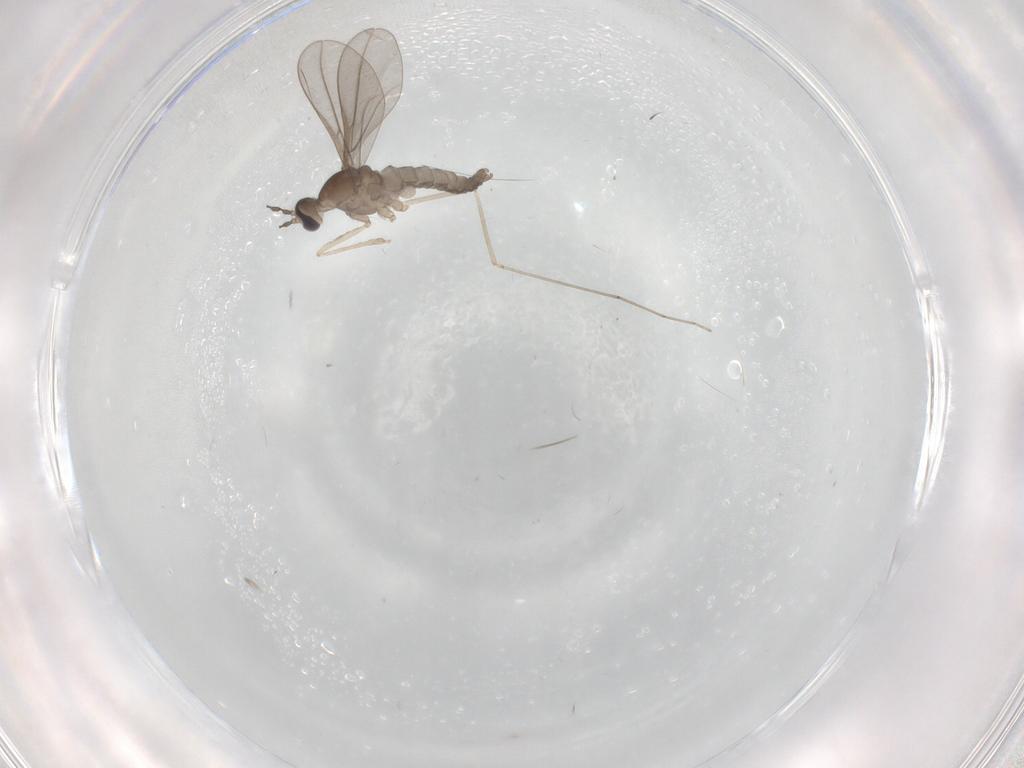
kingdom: Animalia
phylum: Arthropoda
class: Insecta
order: Diptera
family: Cecidomyiidae
